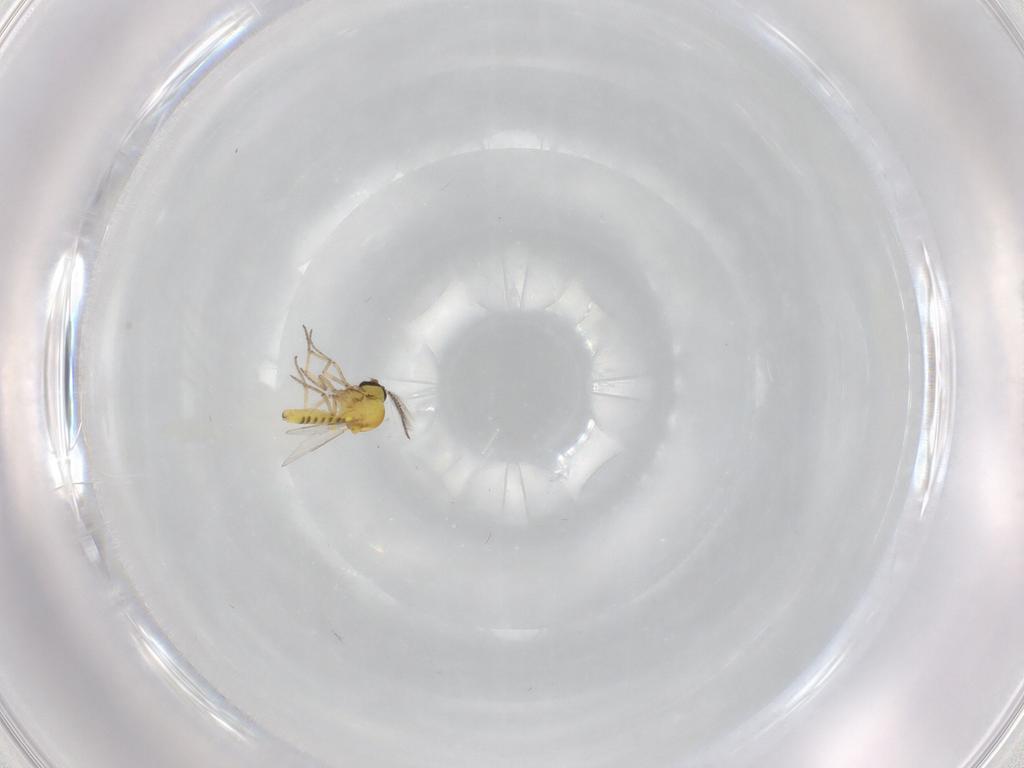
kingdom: Animalia
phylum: Arthropoda
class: Insecta
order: Diptera
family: Ceratopogonidae
